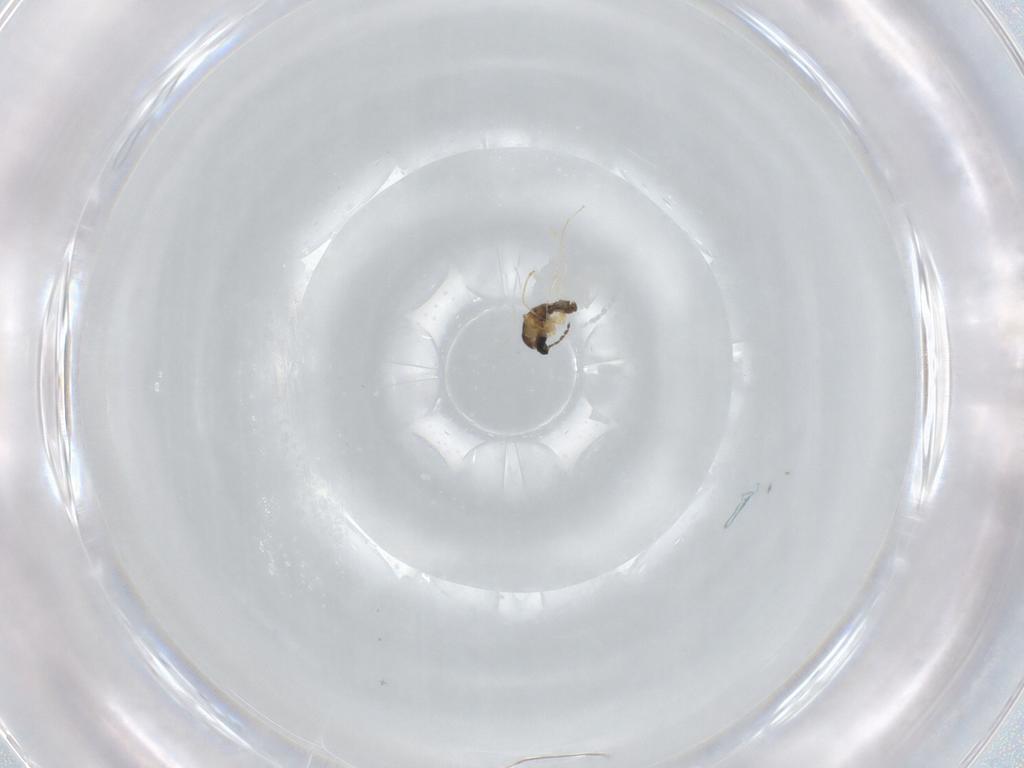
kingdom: Animalia
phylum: Arthropoda
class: Insecta
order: Diptera
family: Cecidomyiidae
